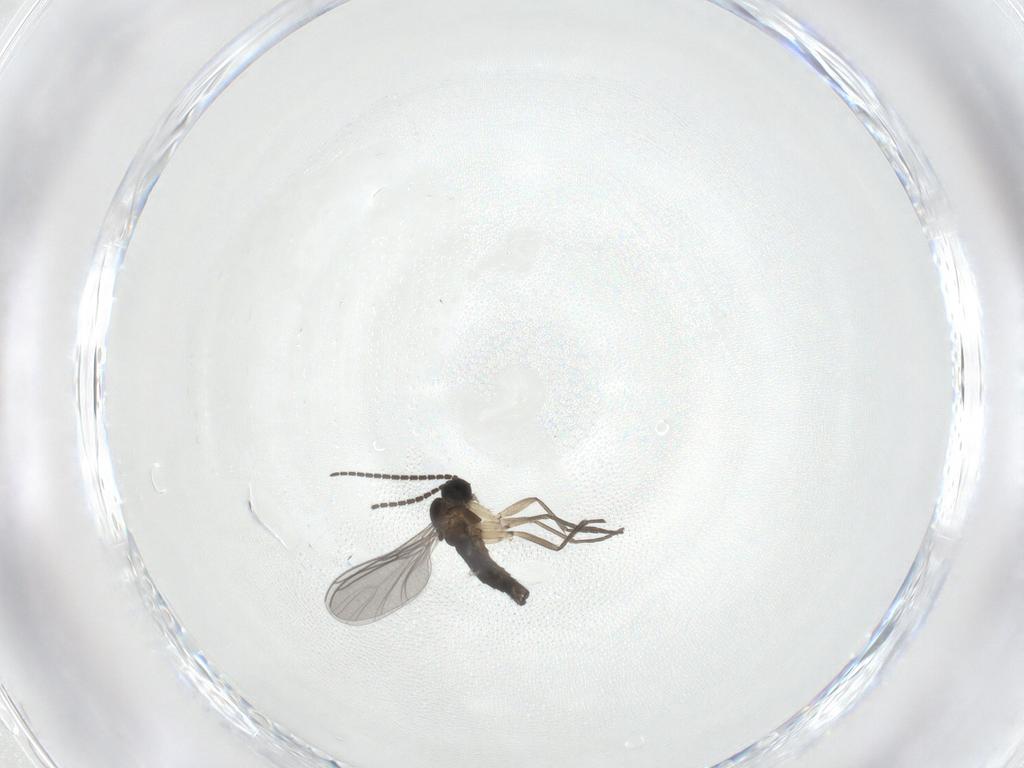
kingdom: Animalia
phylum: Arthropoda
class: Insecta
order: Diptera
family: Sciaridae
